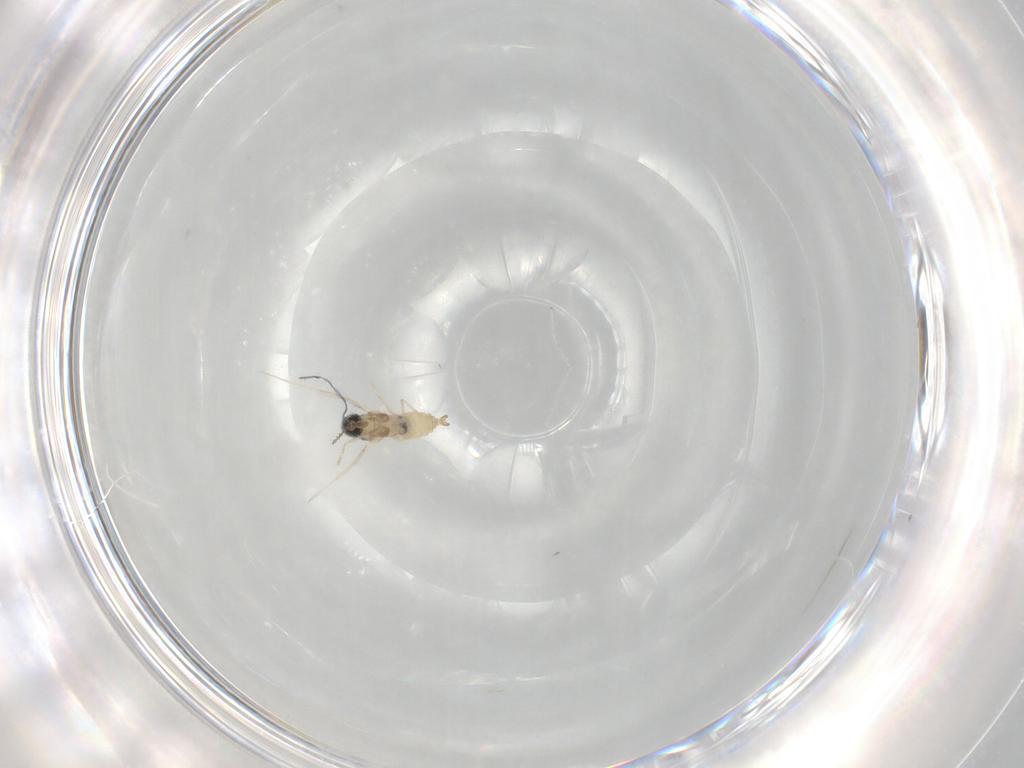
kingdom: Animalia
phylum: Arthropoda
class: Insecta
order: Diptera
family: Cecidomyiidae
